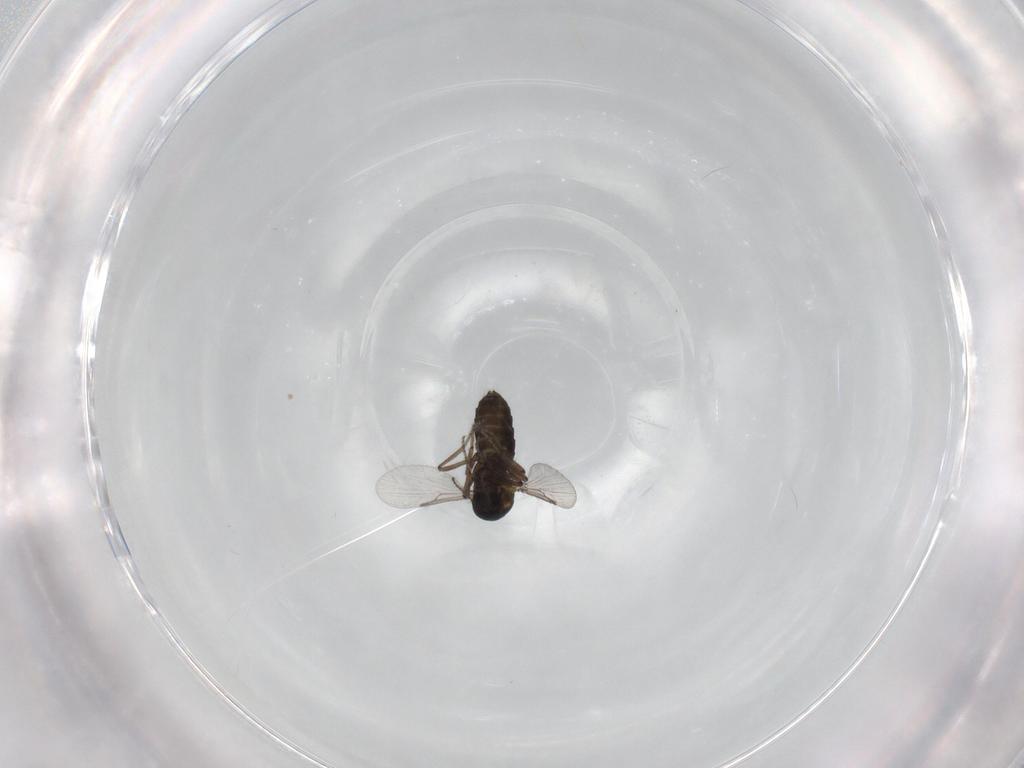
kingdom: Animalia
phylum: Arthropoda
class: Insecta
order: Diptera
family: Ceratopogonidae
